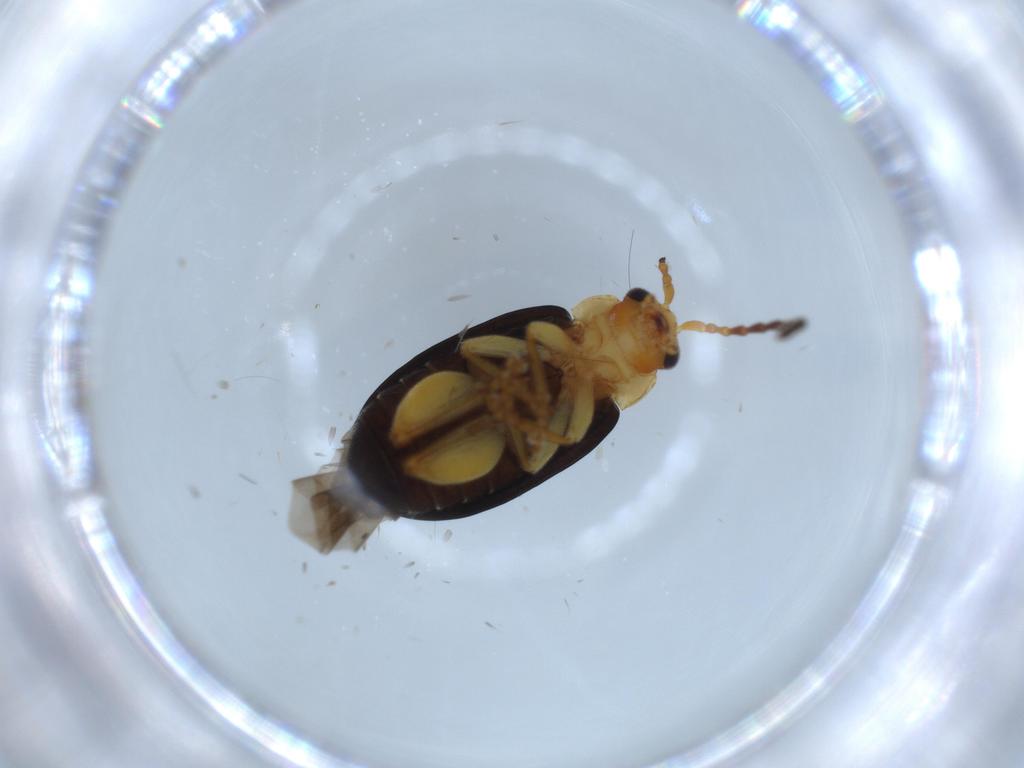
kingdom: Animalia
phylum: Arthropoda
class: Insecta
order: Coleoptera
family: Chrysomelidae
